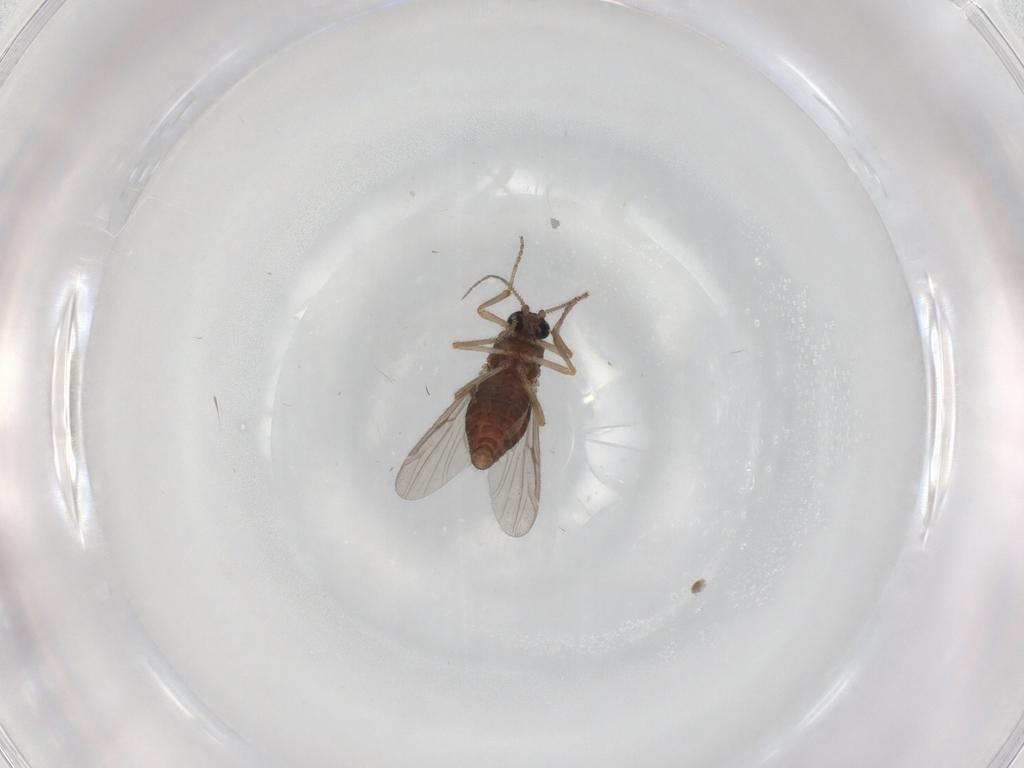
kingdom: Animalia
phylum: Arthropoda
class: Insecta
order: Diptera
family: Ceratopogonidae
